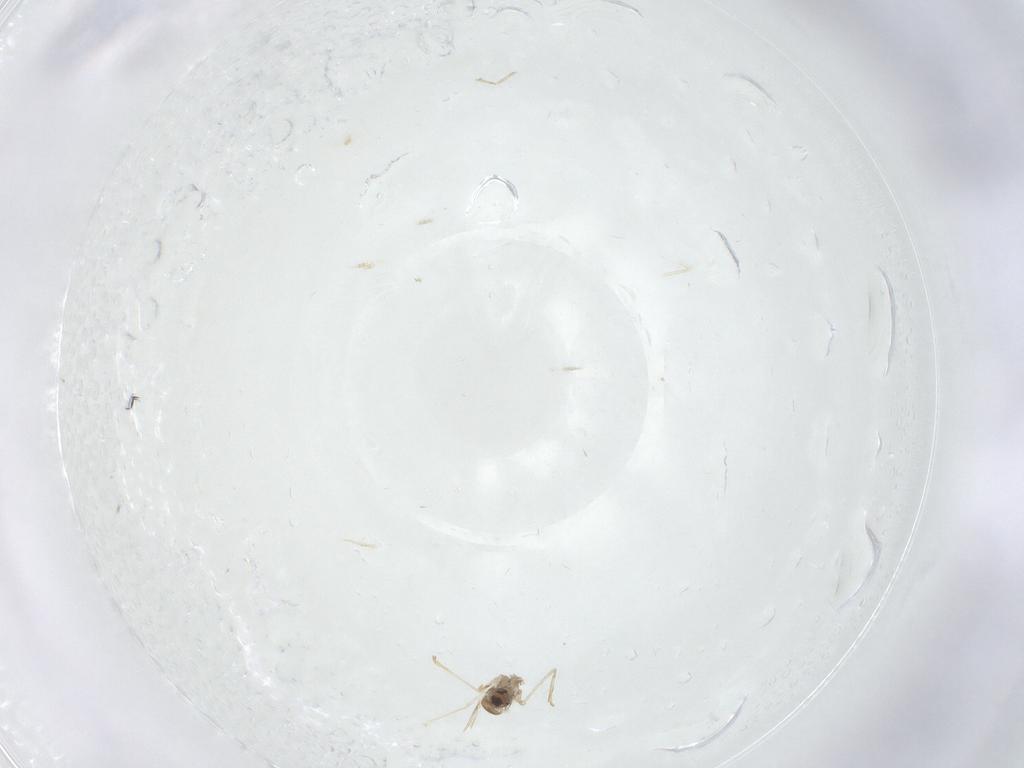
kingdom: Animalia
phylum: Arthropoda
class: Insecta
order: Diptera
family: Cecidomyiidae
